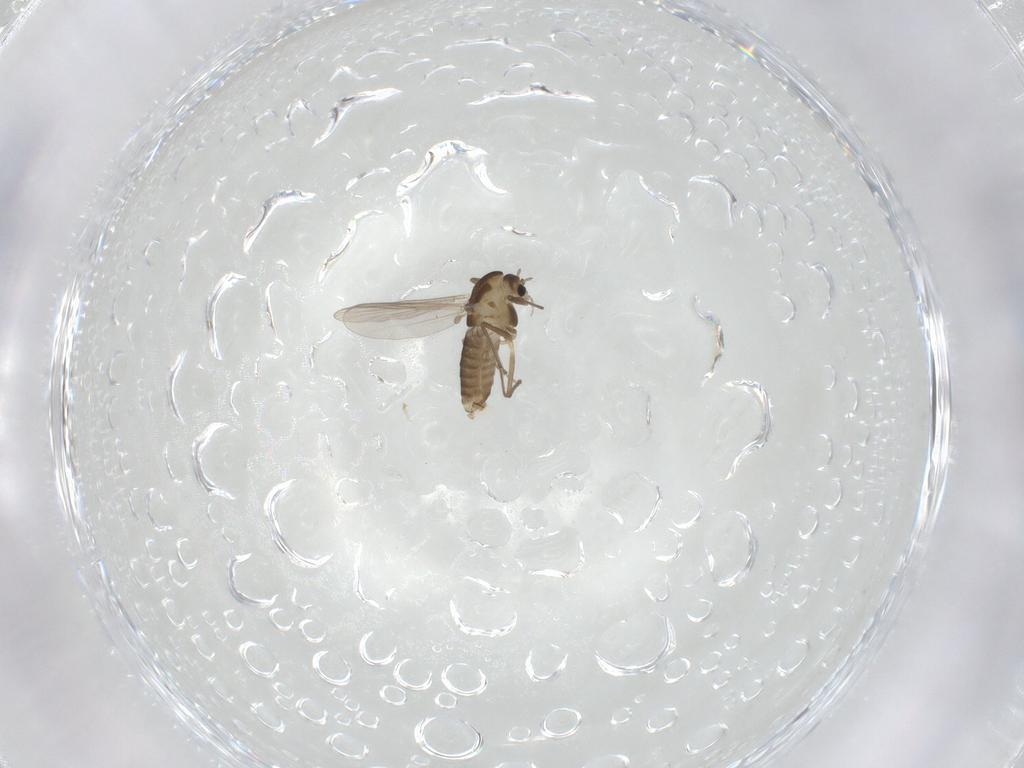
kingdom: Animalia
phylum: Arthropoda
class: Insecta
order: Diptera
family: Chironomidae
